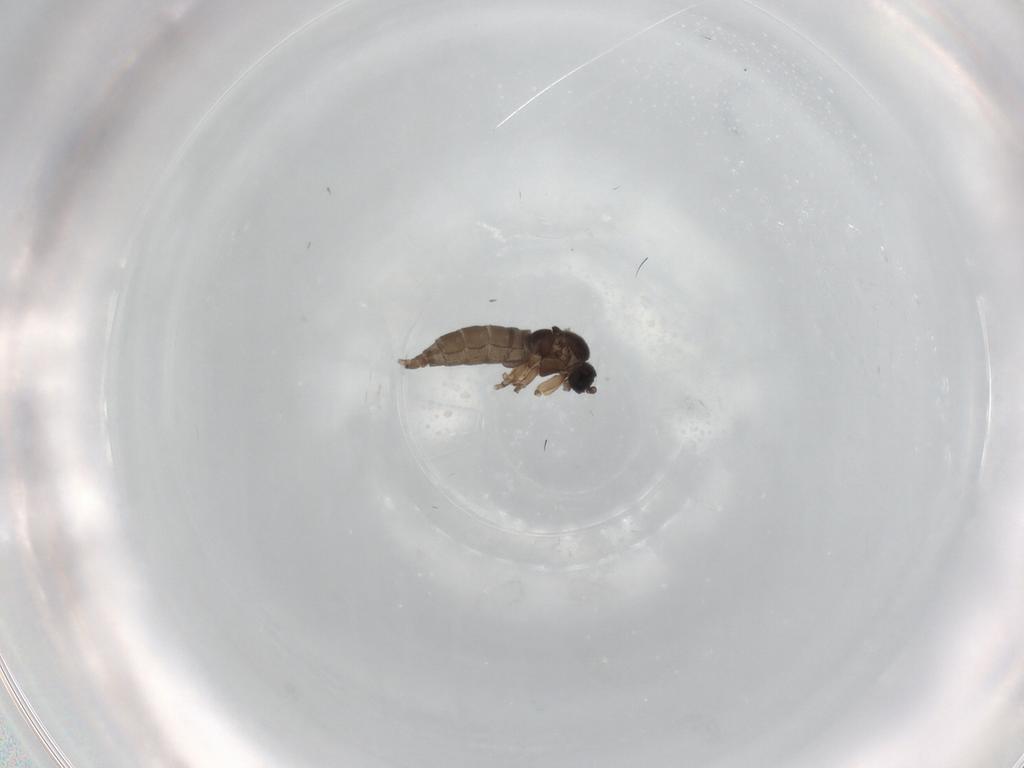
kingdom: Animalia
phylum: Arthropoda
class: Insecta
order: Diptera
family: Sciaridae
